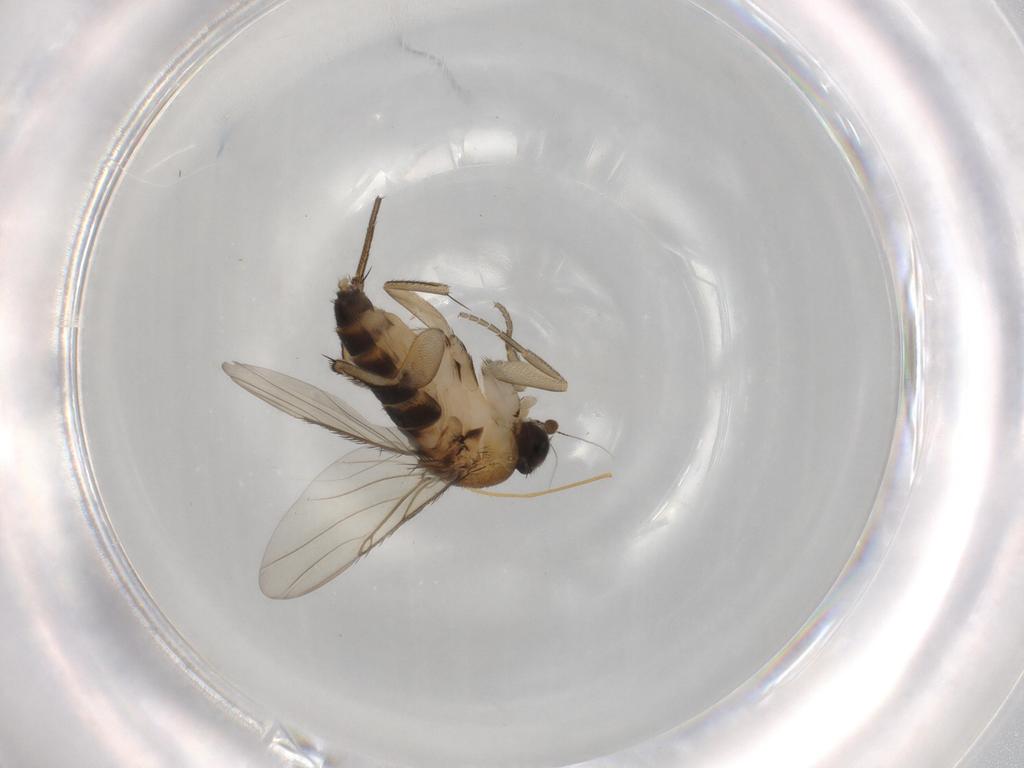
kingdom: Animalia
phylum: Arthropoda
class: Insecta
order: Diptera
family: Phoridae
